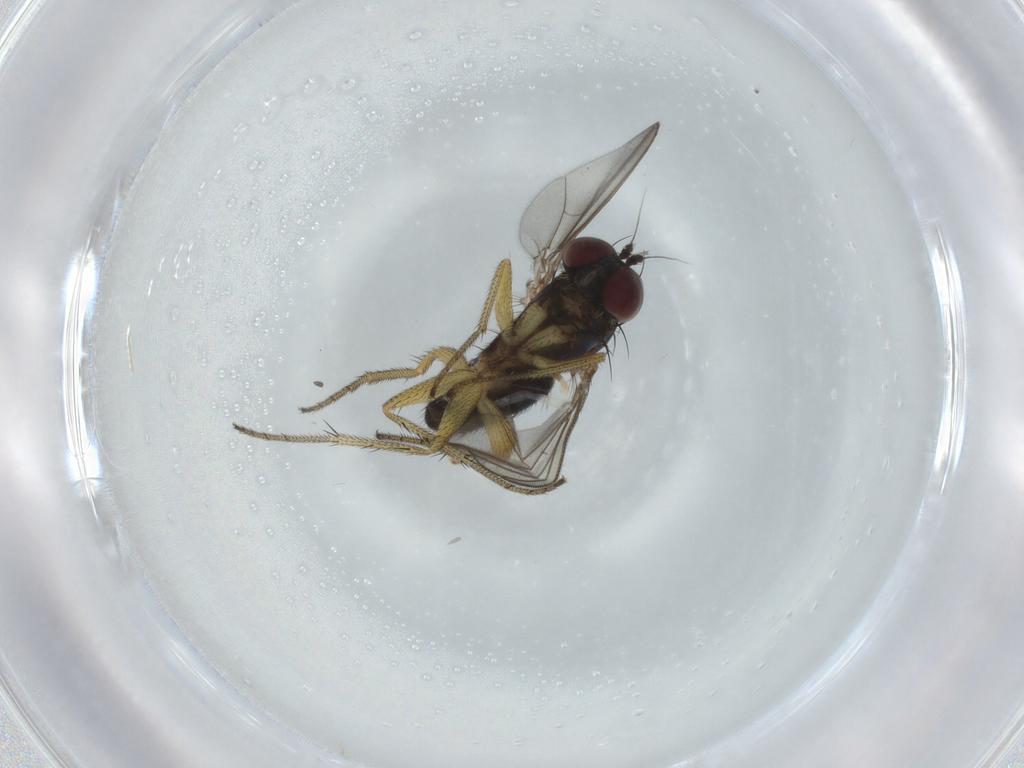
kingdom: Animalia
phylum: Arthropoda
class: Insecta
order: Diptera
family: Dolichopodidae
